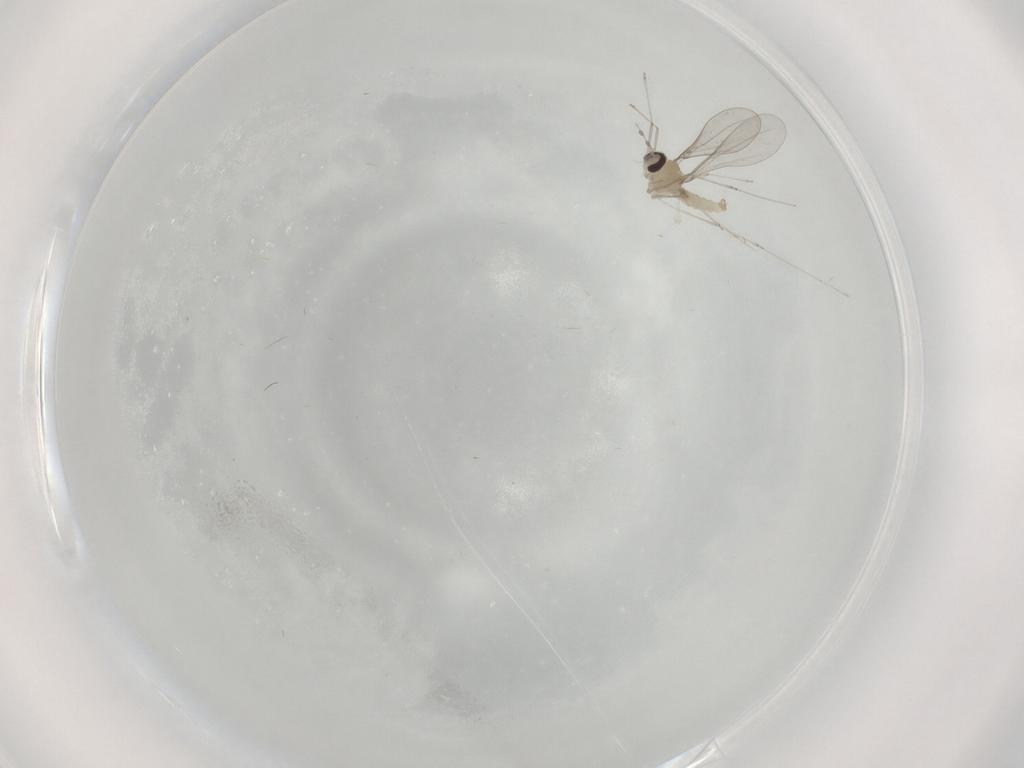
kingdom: Animalia
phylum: Arthropoda
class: Insecta
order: Diptera
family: Cecidomyiidae
